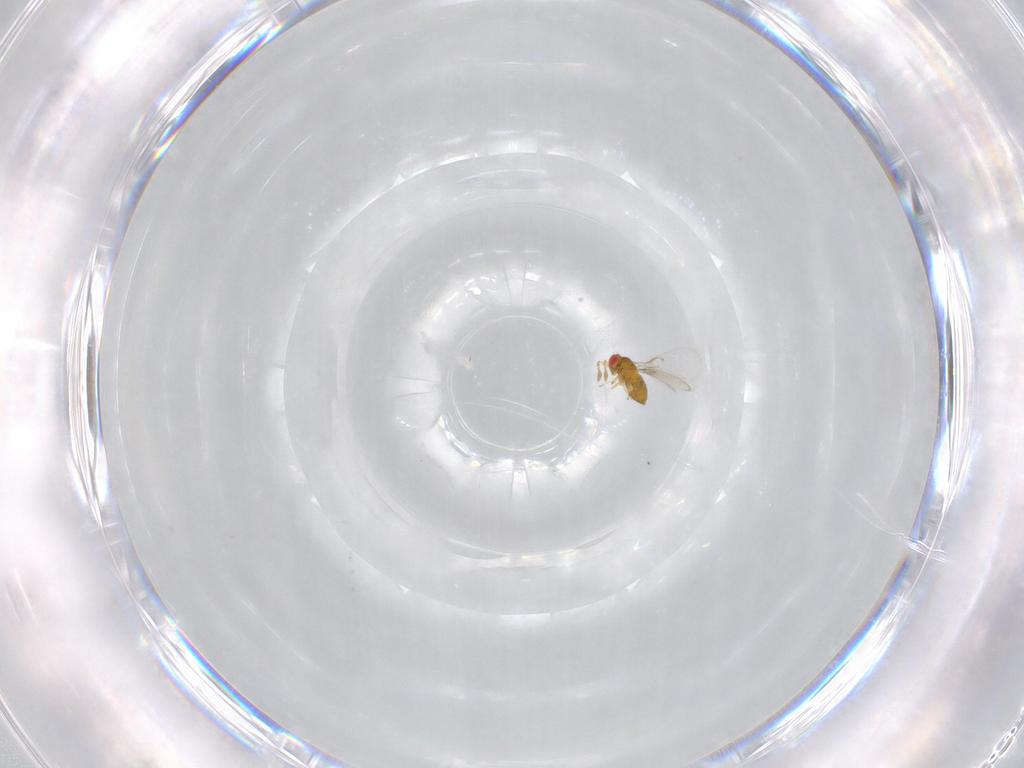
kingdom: Animalia
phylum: Arthropoda
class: Insecta
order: Hymenoptera
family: Trichogrammatidae
